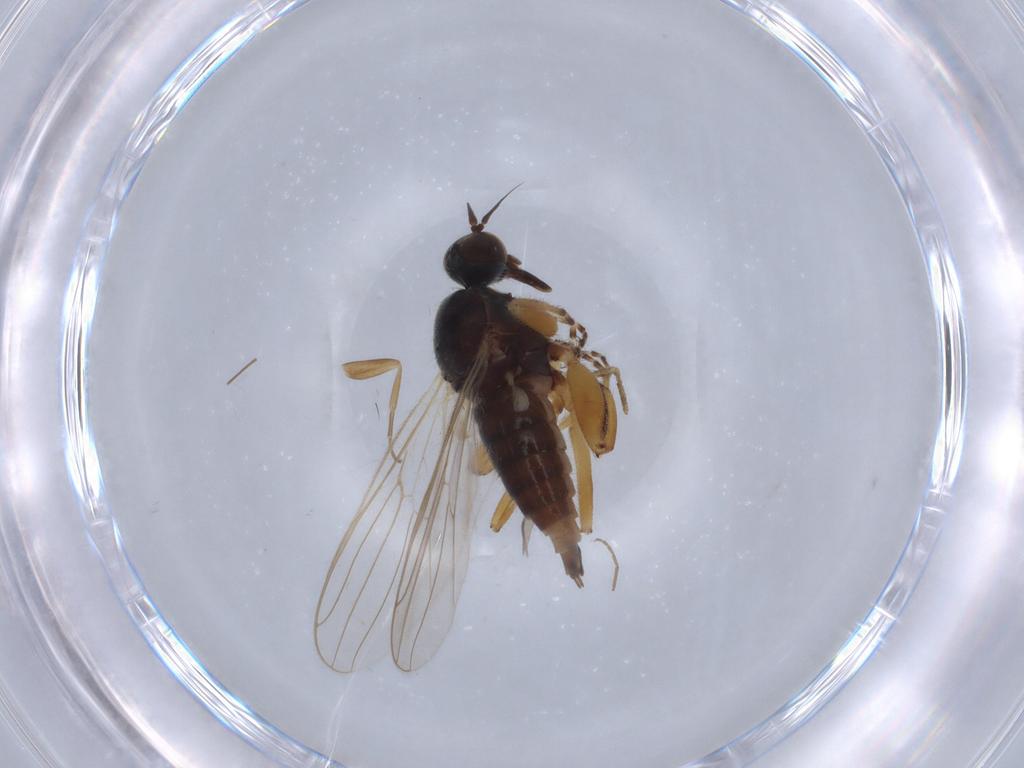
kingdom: Animalia
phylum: Arthropoda
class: Insecta
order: Diptera
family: Hybotidae
